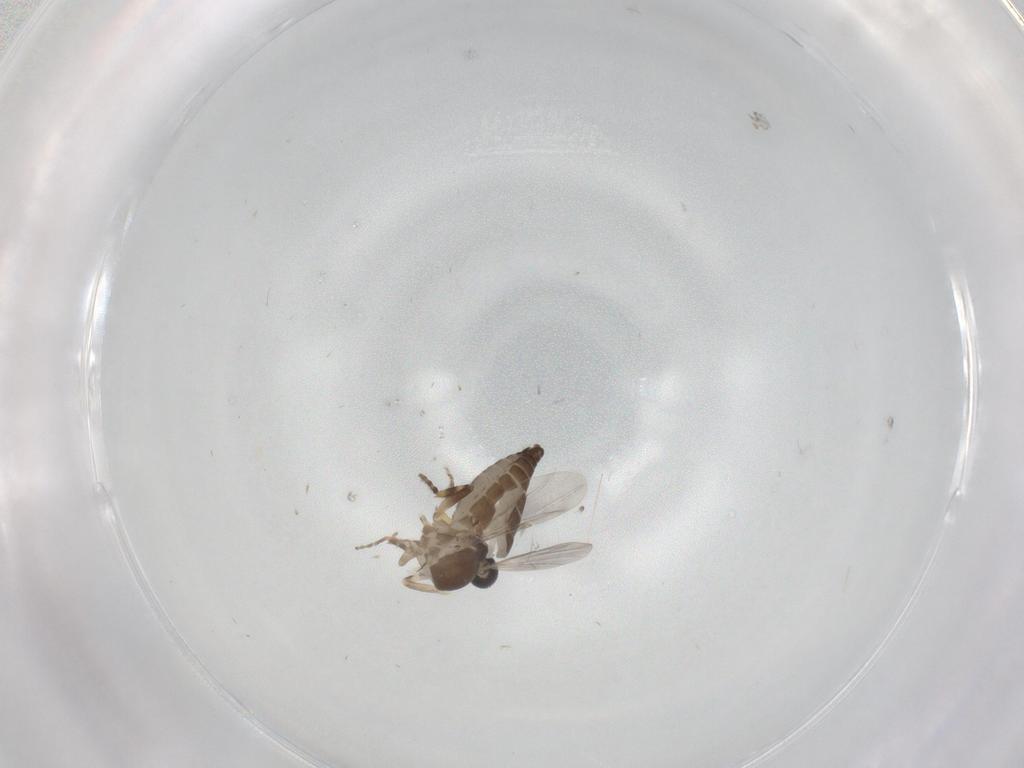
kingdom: Animalia
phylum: Arthropoda
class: Insecta
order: Diptera
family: Ceratopogonidae
